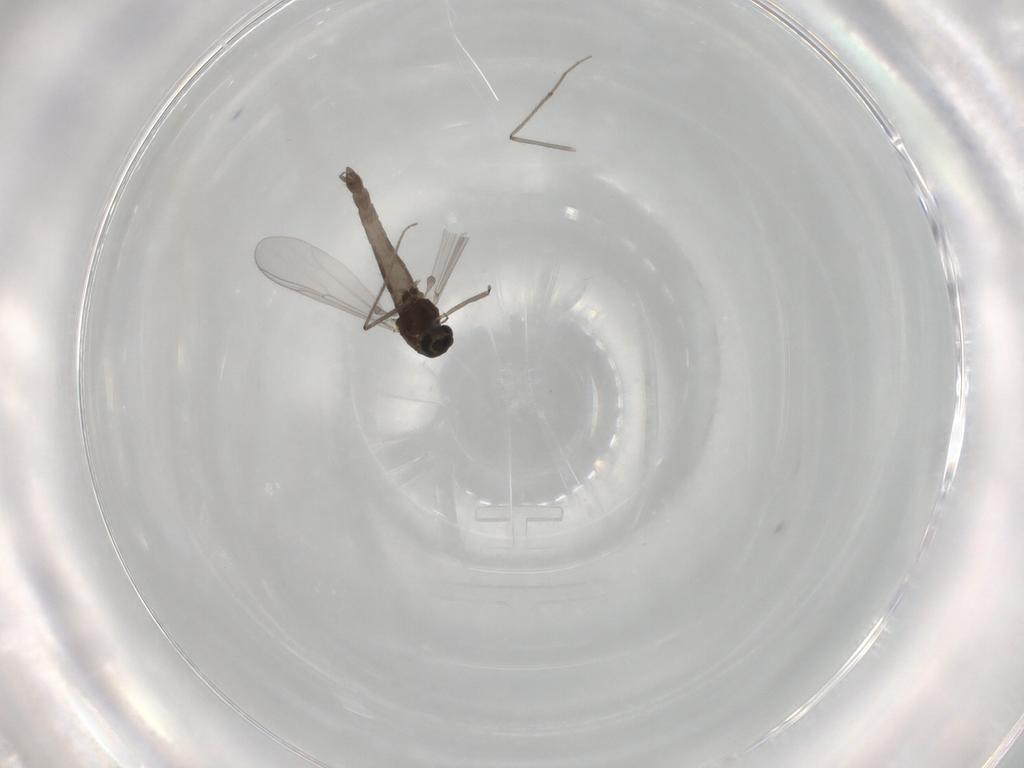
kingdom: Animalia
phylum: Arthropoda
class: Insecta
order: Diptera
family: Chironomidae
